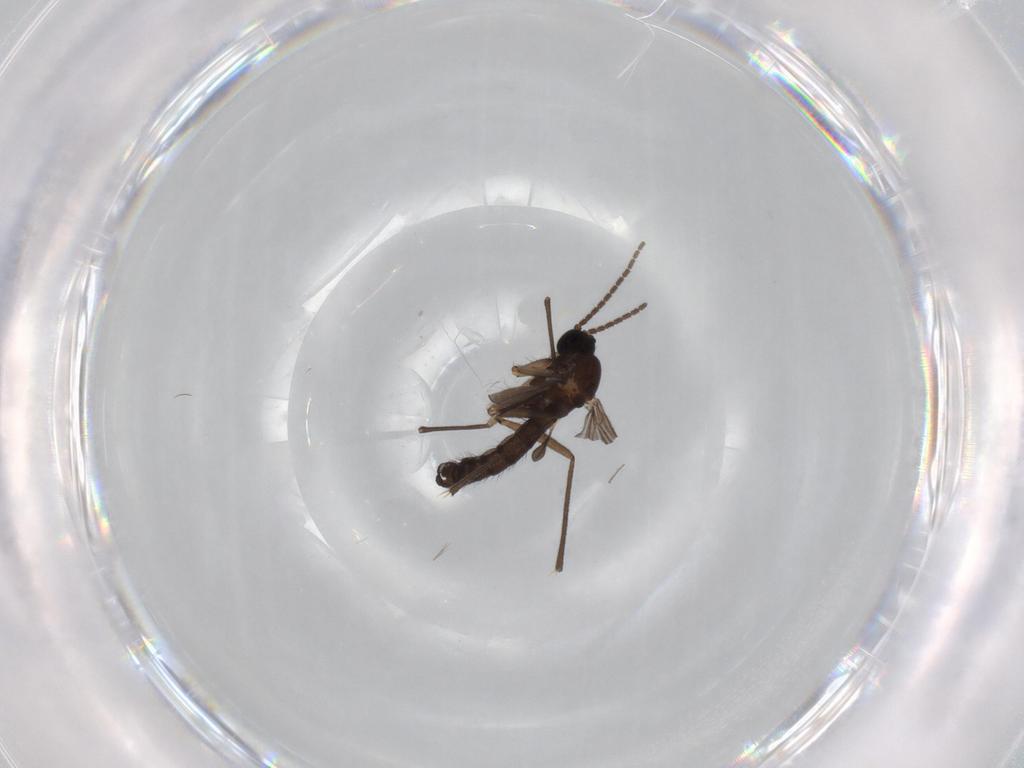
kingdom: Animalia
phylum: Arthropoda
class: Insecta
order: Diptera
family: Sciaridae
